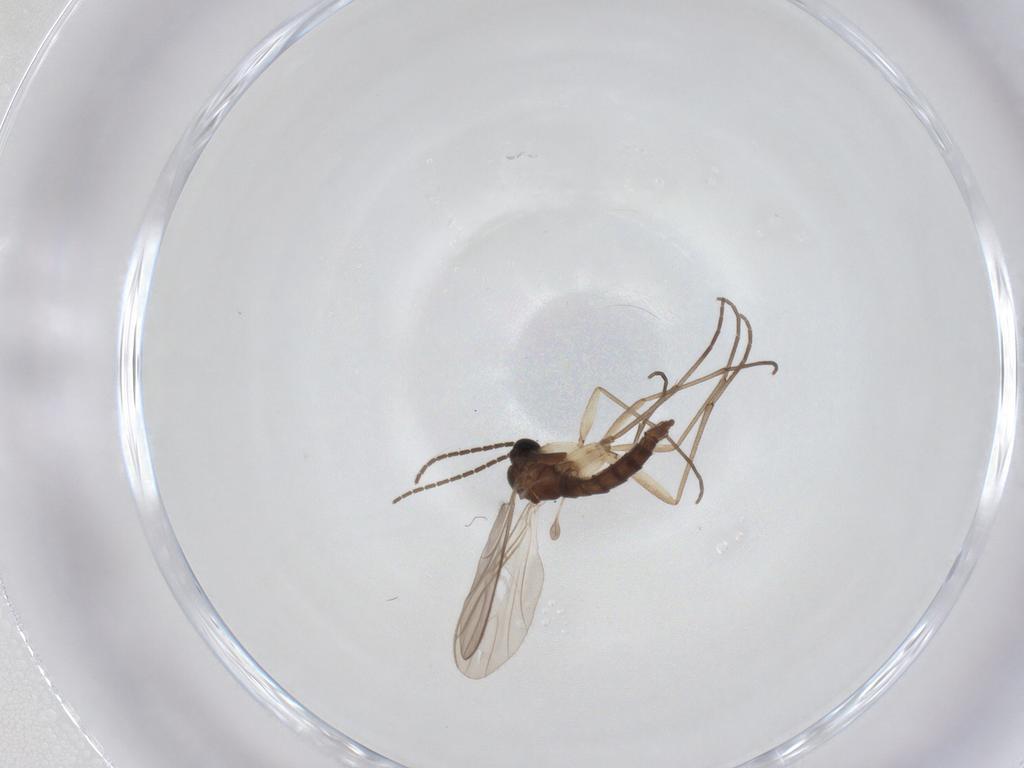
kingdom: Animalia
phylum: Arthropoda
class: Insecta
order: Diptera
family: Sciaridae
